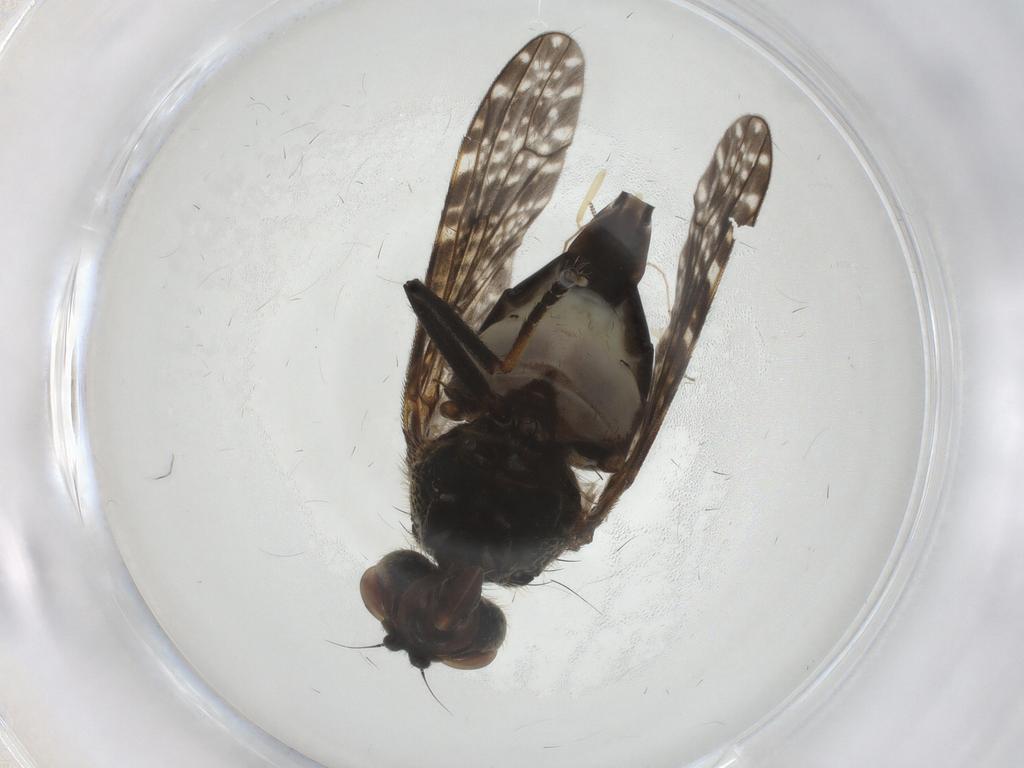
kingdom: Animalia
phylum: Arthropoda
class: Insecta
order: Diptera
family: Platystomatidae
